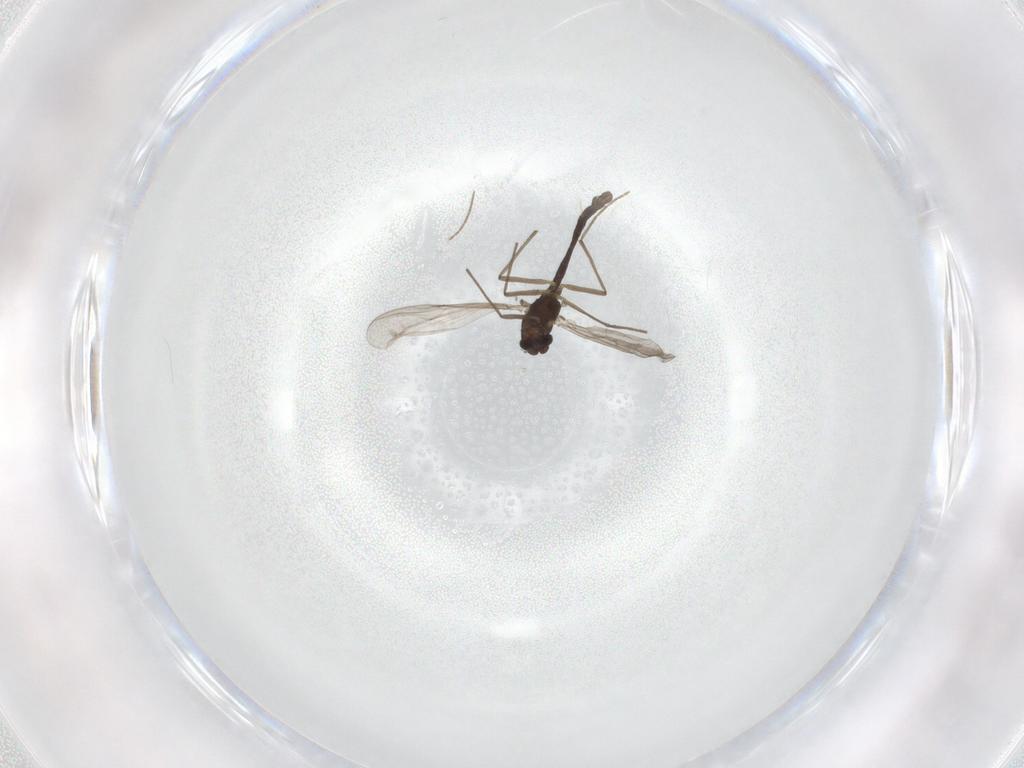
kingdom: Animalia
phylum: Arthropoda
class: Insecta
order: Diptera
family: Chironomidae
